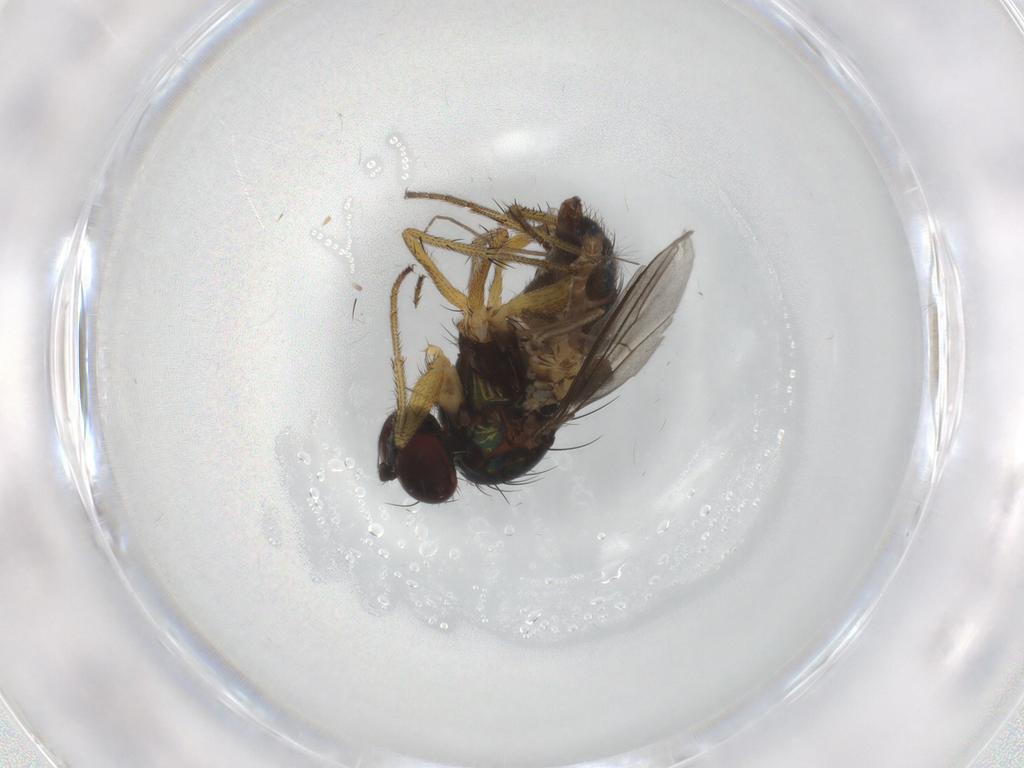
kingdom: Animalia
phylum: Arthropoda
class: Insecta
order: Diptera
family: Dolichopodidae
